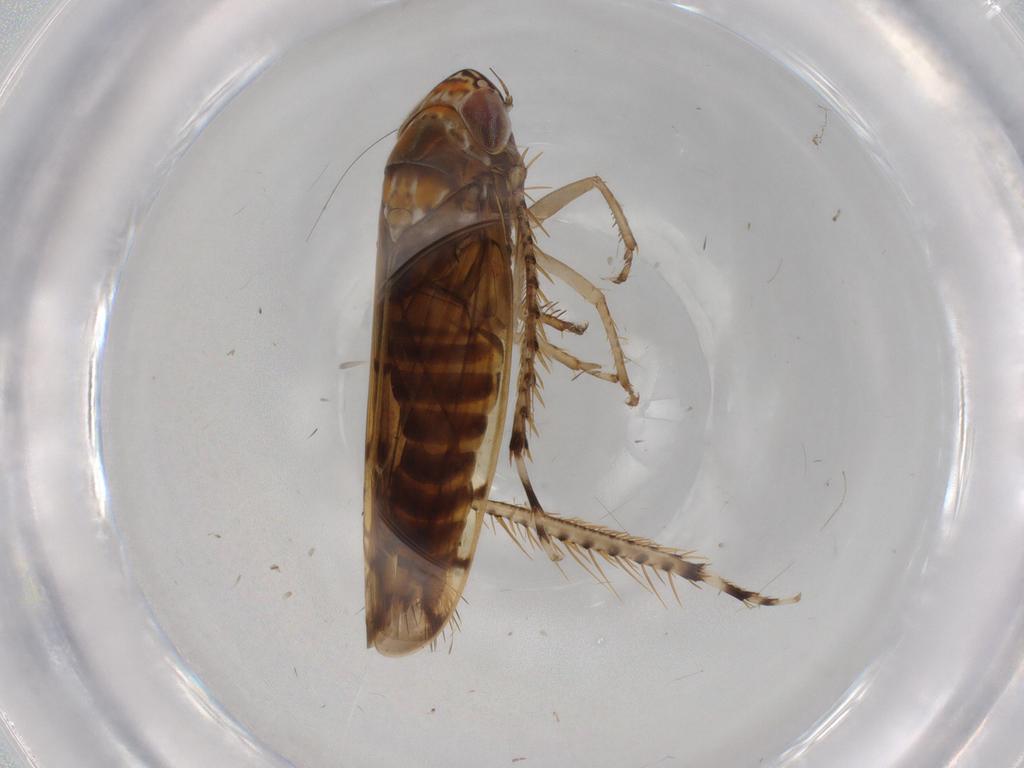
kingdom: Animalia
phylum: Arthropoda
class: Insecta
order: Hemiptera
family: Cicadellidae
